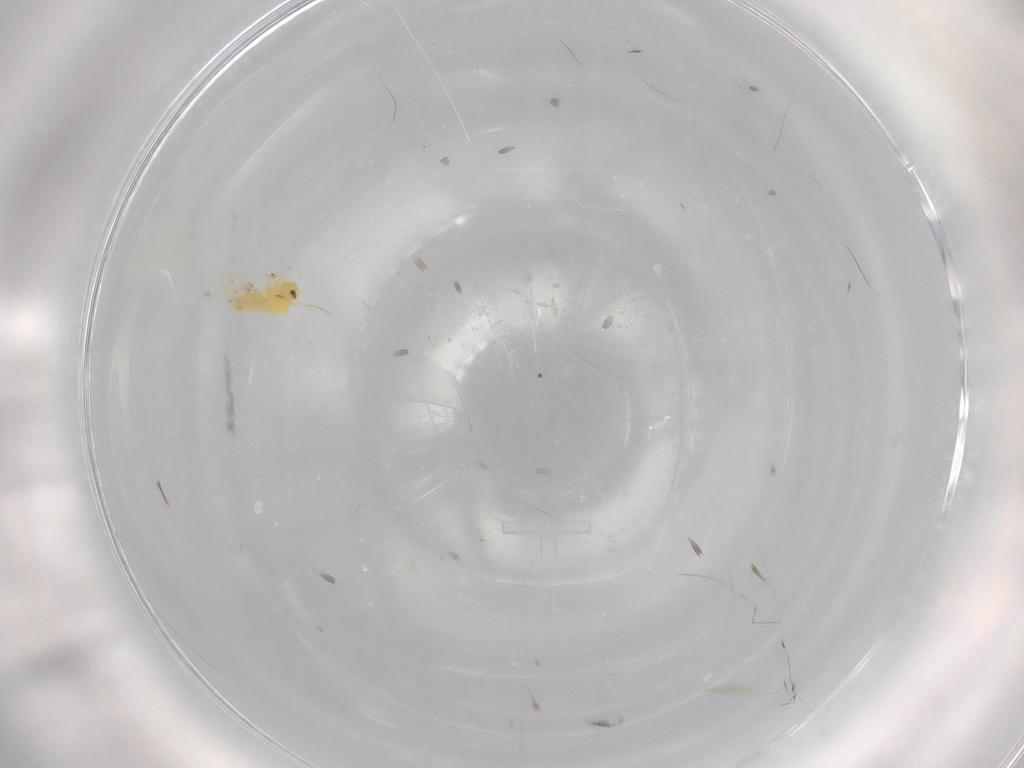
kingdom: Animalia
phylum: Arthropoda
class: Insecta
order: Hemiptera
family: Aleyrodidae
